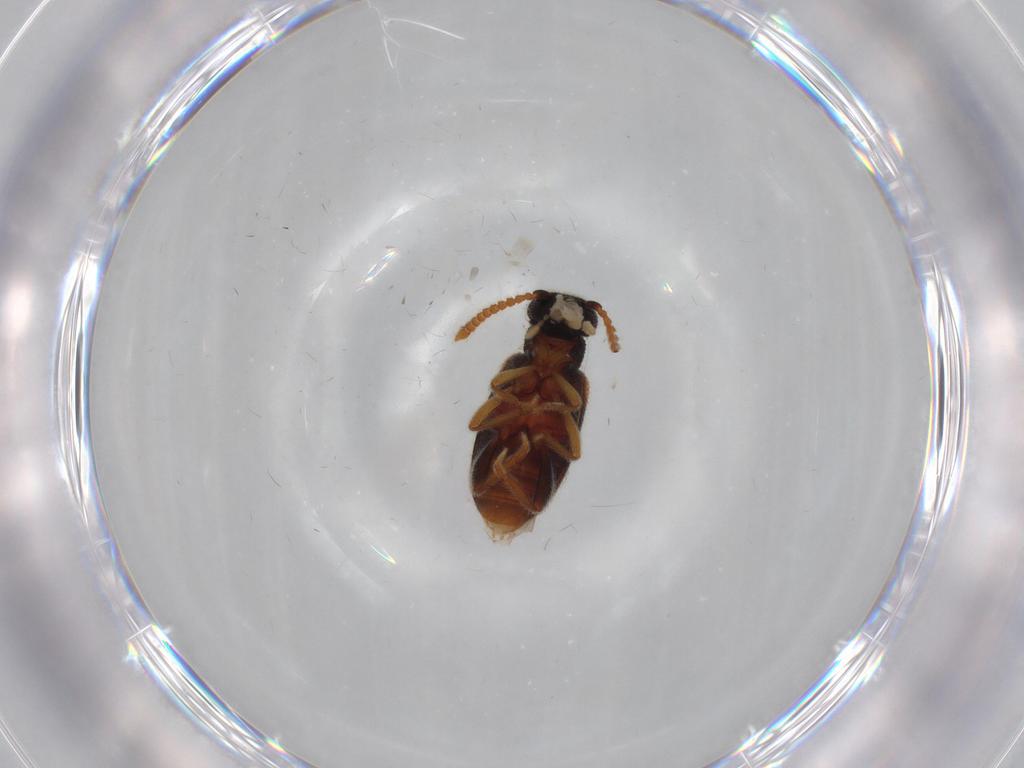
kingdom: Animalia
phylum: Arthropoda
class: Insecta
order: Coleoptera
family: Aderidae
